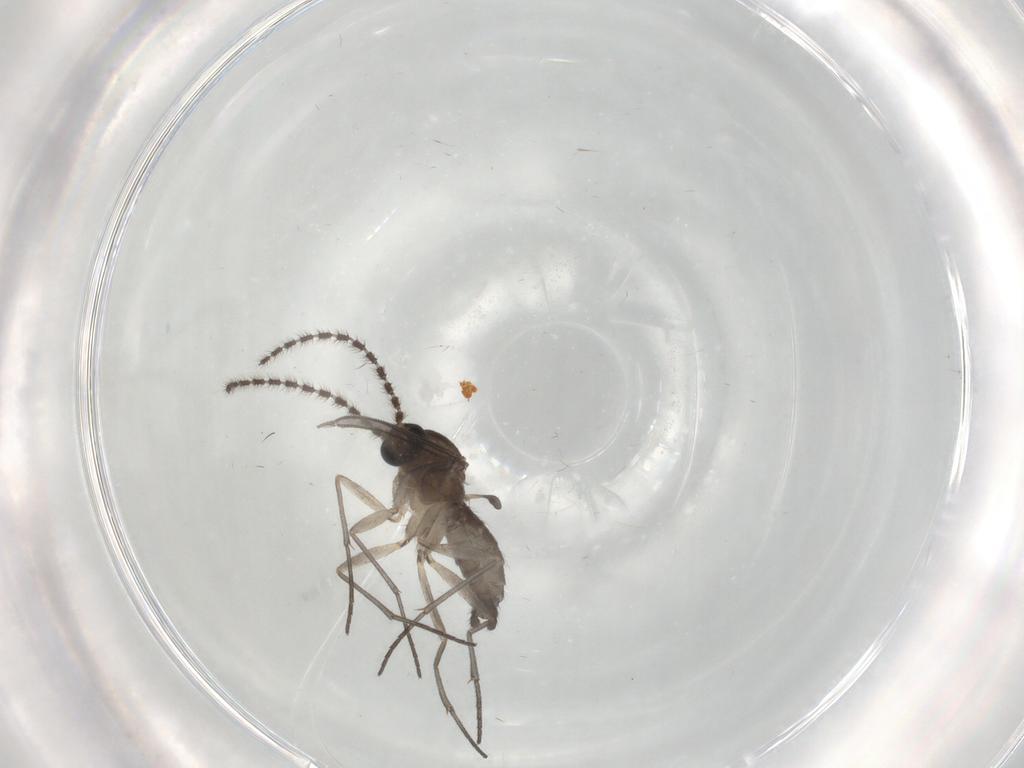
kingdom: Animalia
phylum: Arthropoda
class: Insecta
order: Diptera
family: Sciaridae
